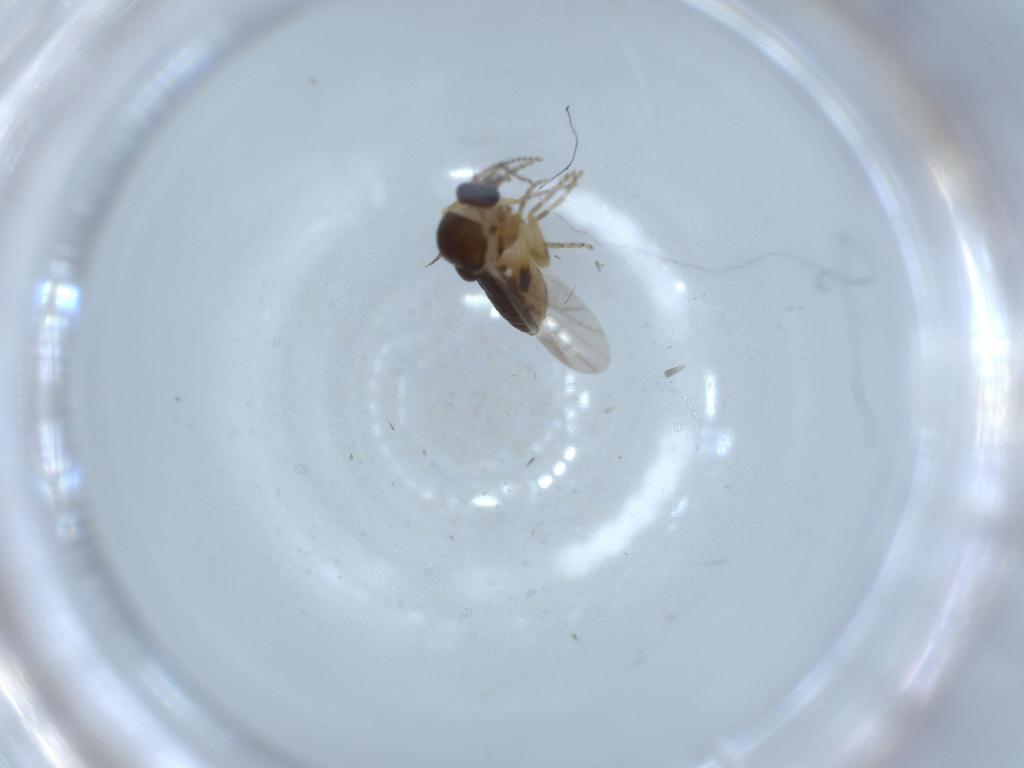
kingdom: Animalia
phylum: Arthropoda
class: Insecta
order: Diptera
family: Ceratopogonidae
